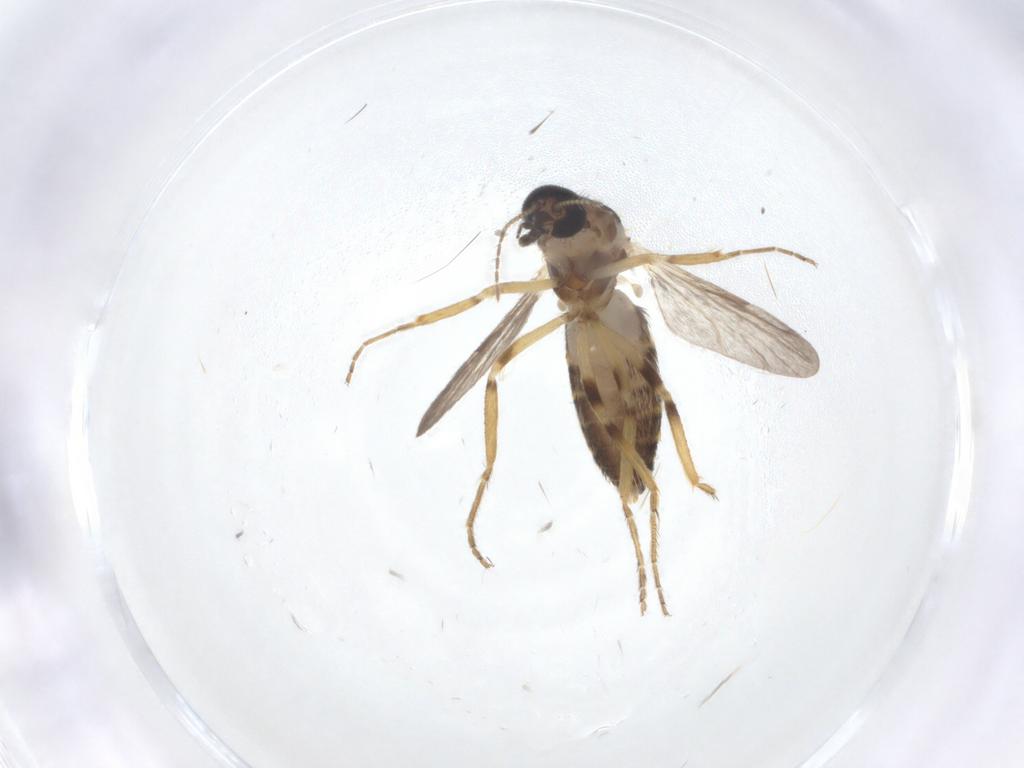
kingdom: Animalia
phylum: Arthropoda
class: Insecta
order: Diptera
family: Ceratopogonidae
